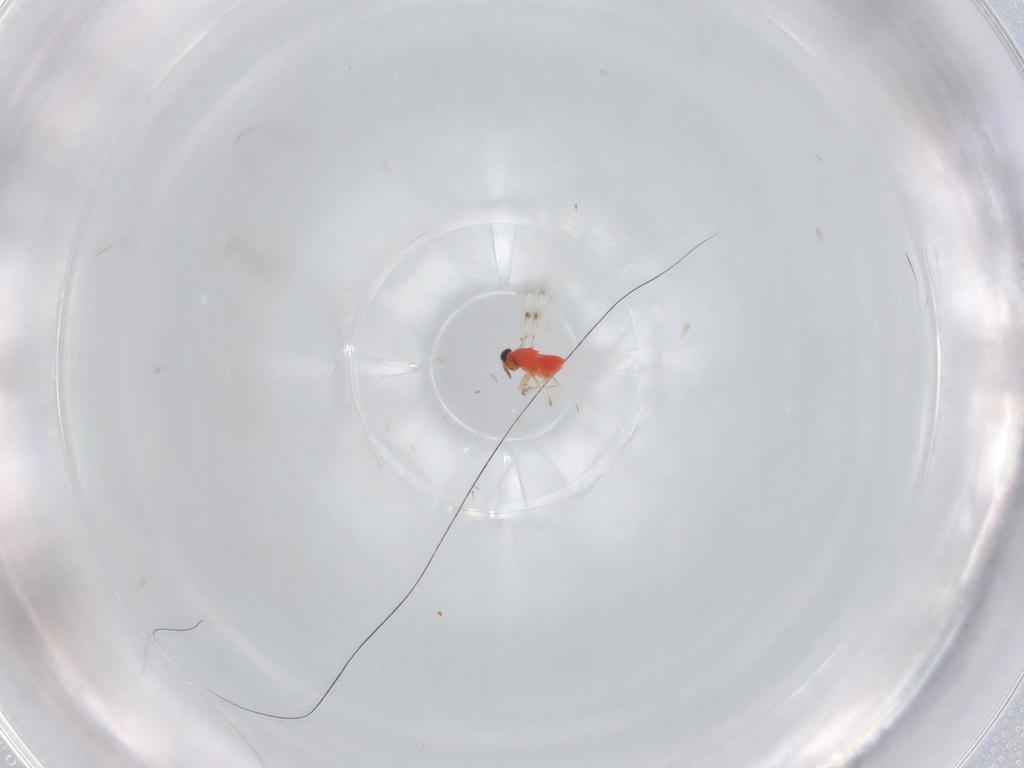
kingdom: Animalia
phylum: Arthropoda
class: Insecta
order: Hymenoptera
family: Trichogrammatidae
